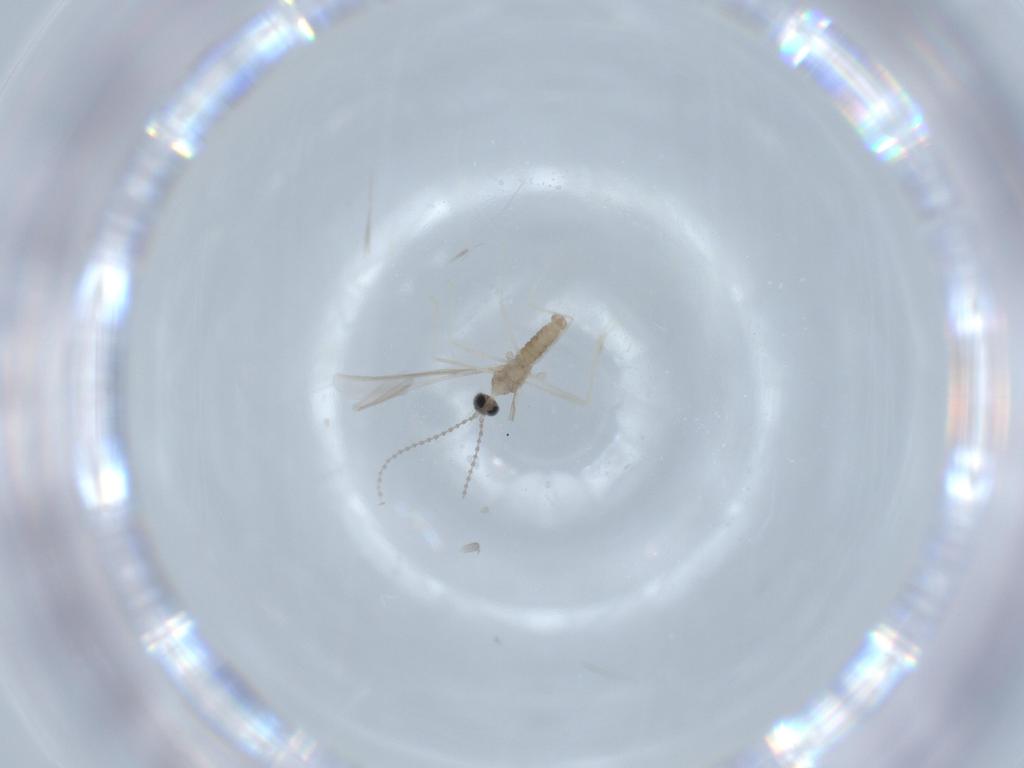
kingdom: Animalia
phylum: Arthropoda
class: Insecta
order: Diptera
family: Cecidomyiidae
